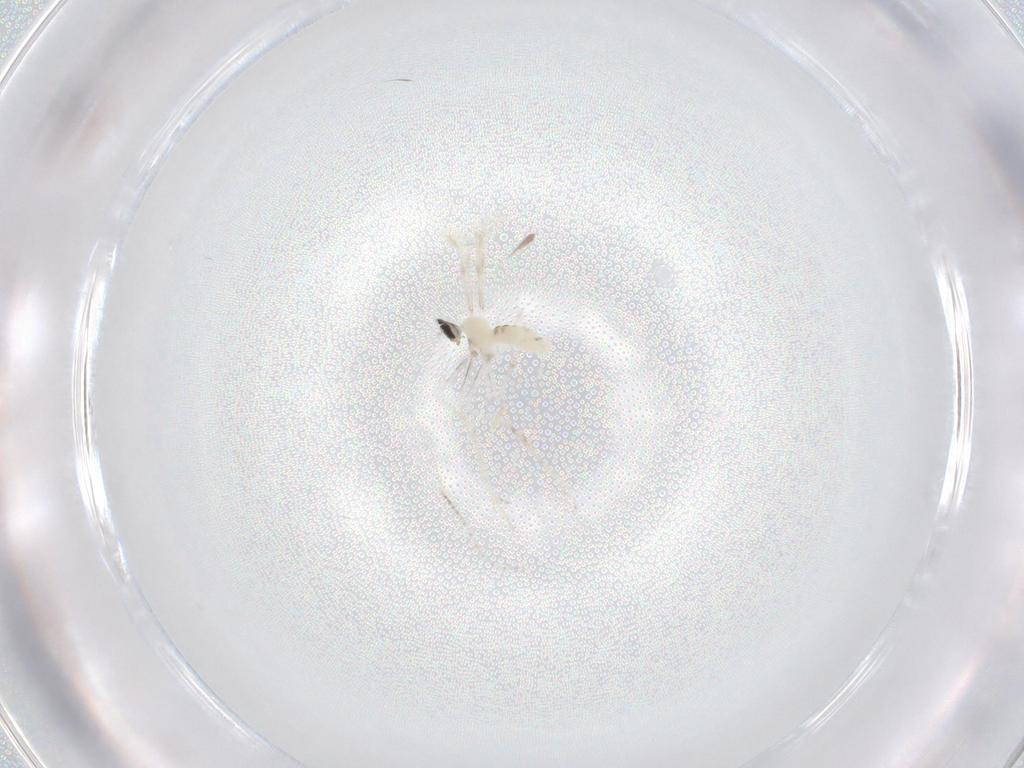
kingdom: Animalia
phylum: Arthropoda
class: Insecta
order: Diptera
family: Cecidomyiidae
